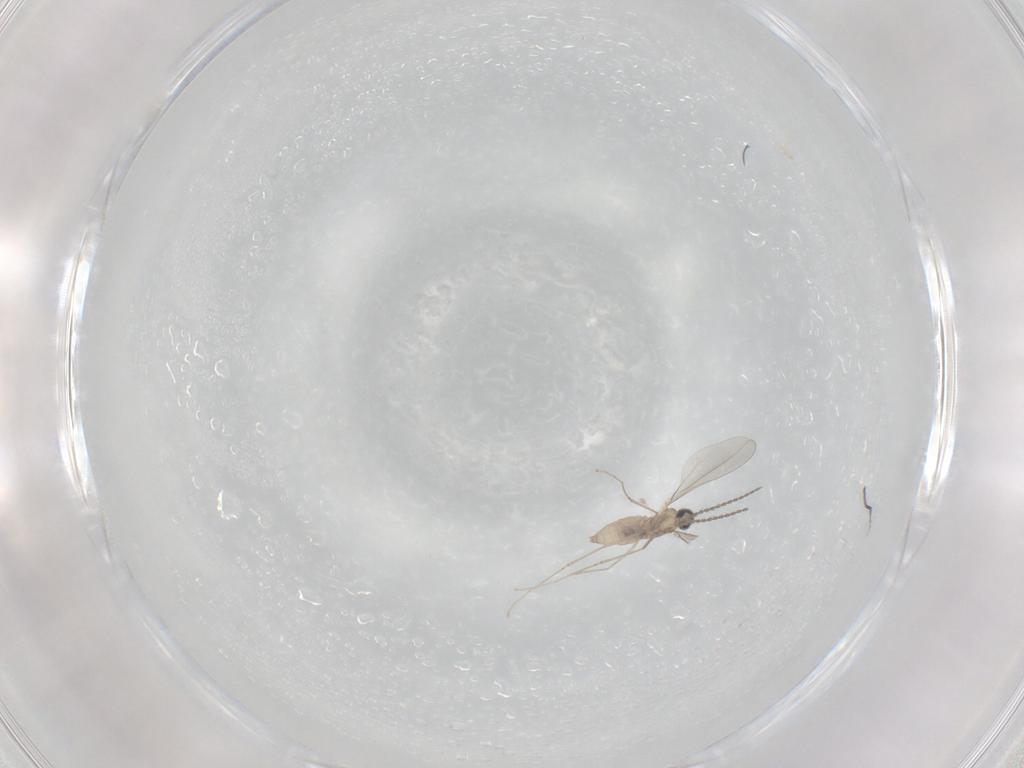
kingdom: Animalia
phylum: Arthropoda
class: Insecta
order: Diptera
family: Cecidomyiidae
